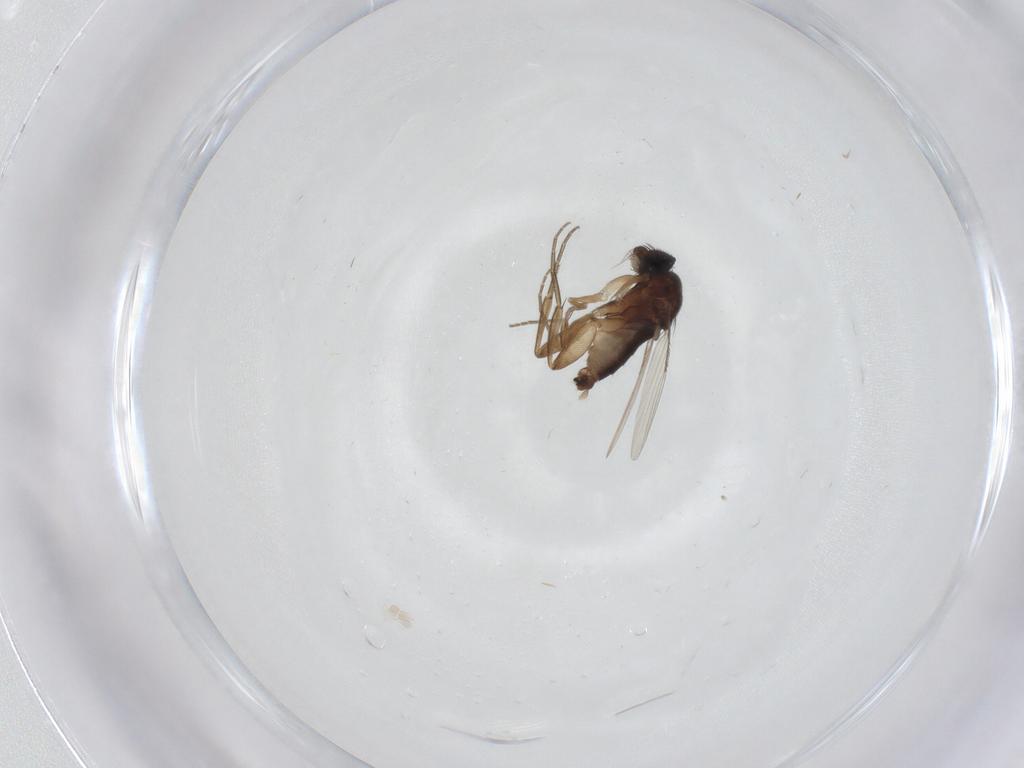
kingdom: Animalia
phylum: Arthropoda
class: Insecta
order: Diptera
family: Phoridae
